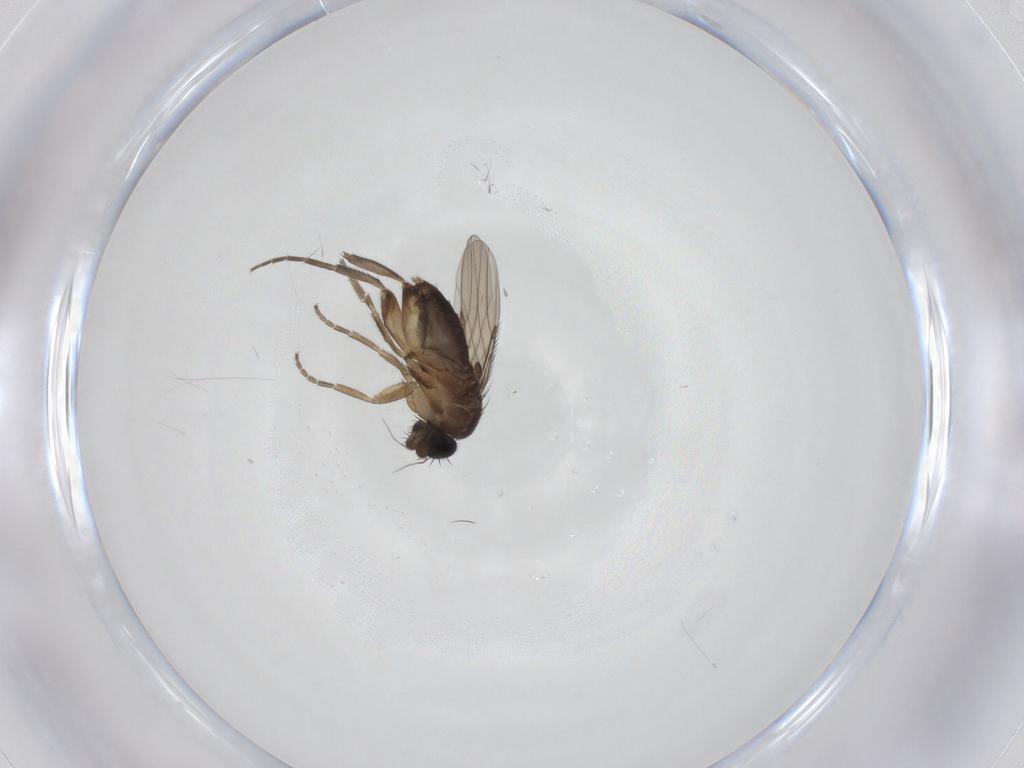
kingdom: Animalia
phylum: Arthropoda
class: Insecta
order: Diptera
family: Phoridae
